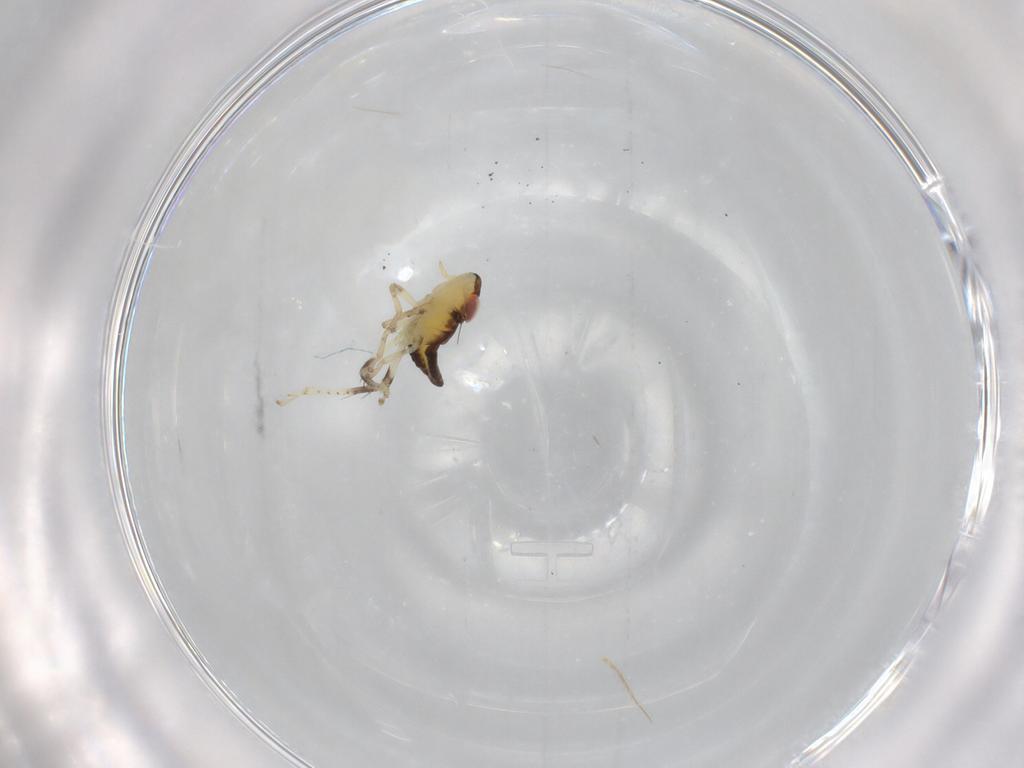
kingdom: Animalia
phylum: Arthropoda
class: Insecta
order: Hemiptera
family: Cicadellidae
